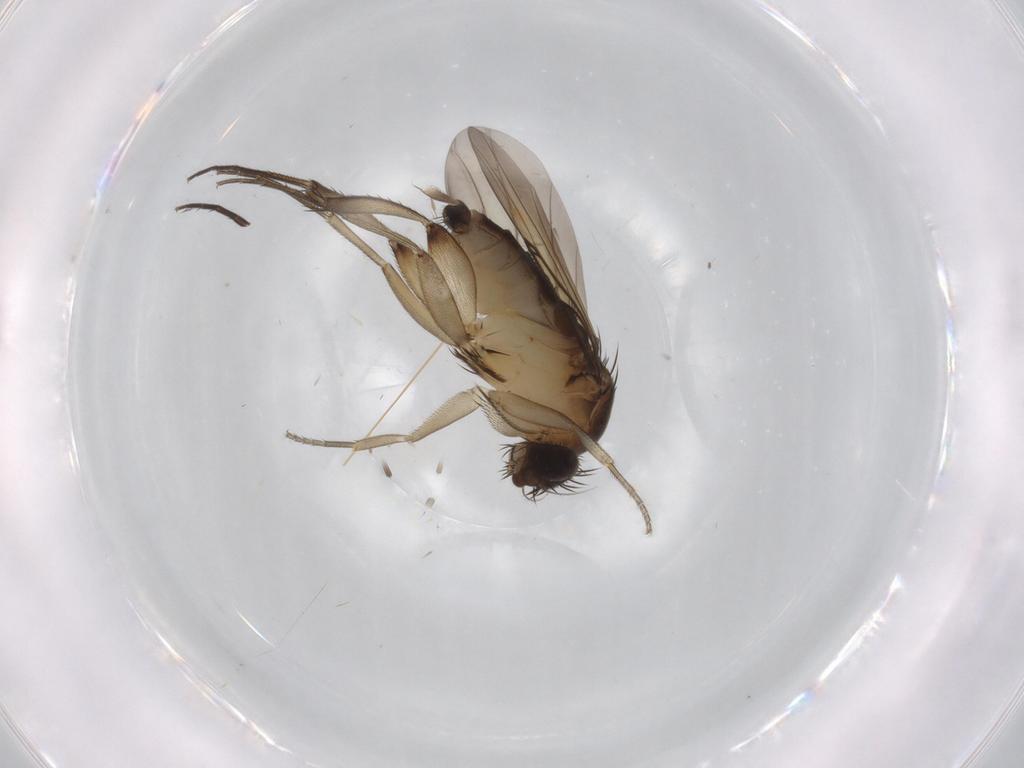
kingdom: Animalia
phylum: Arthropoda
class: Insecta
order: Diptera
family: Phoridae
